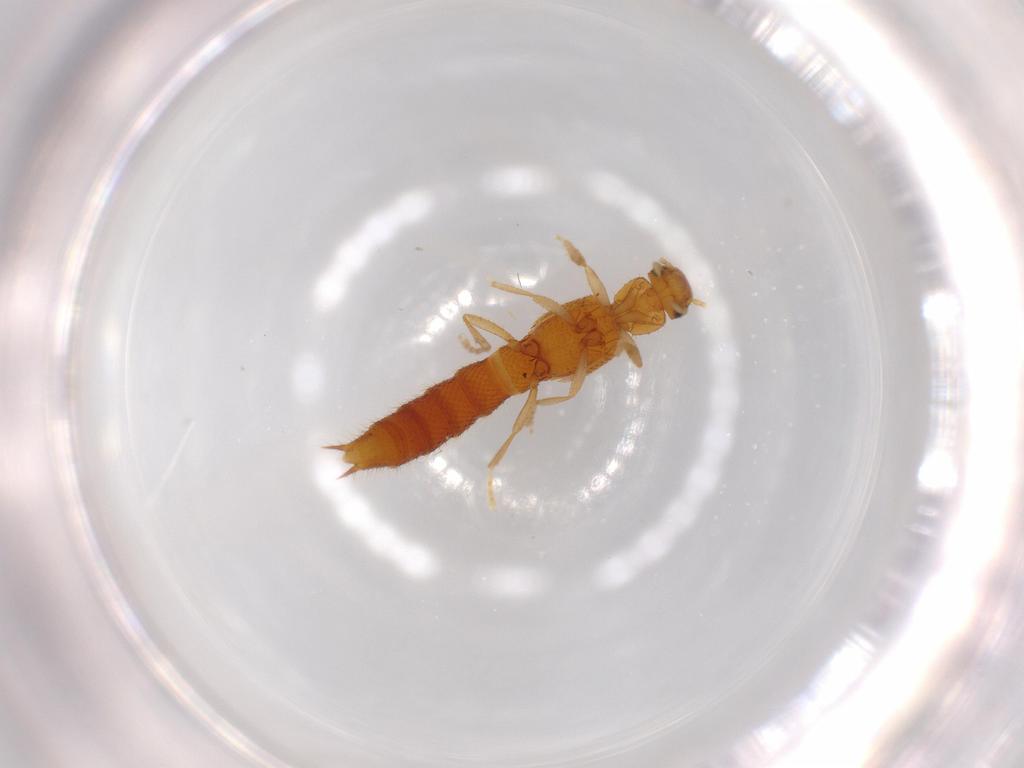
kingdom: Animalia
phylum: Arthropoda
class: Insecta
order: Coleoptera
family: Staphylinidae
